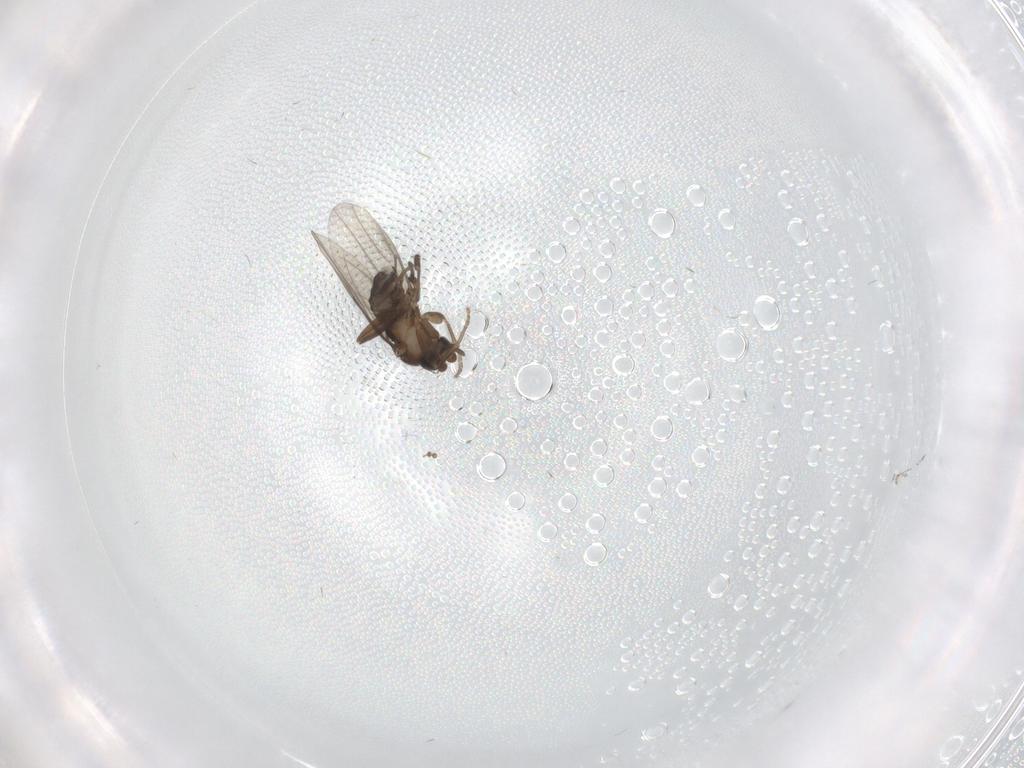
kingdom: Animalia
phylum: Arthropoda
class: Insecta
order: Diptera
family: Phoridae
